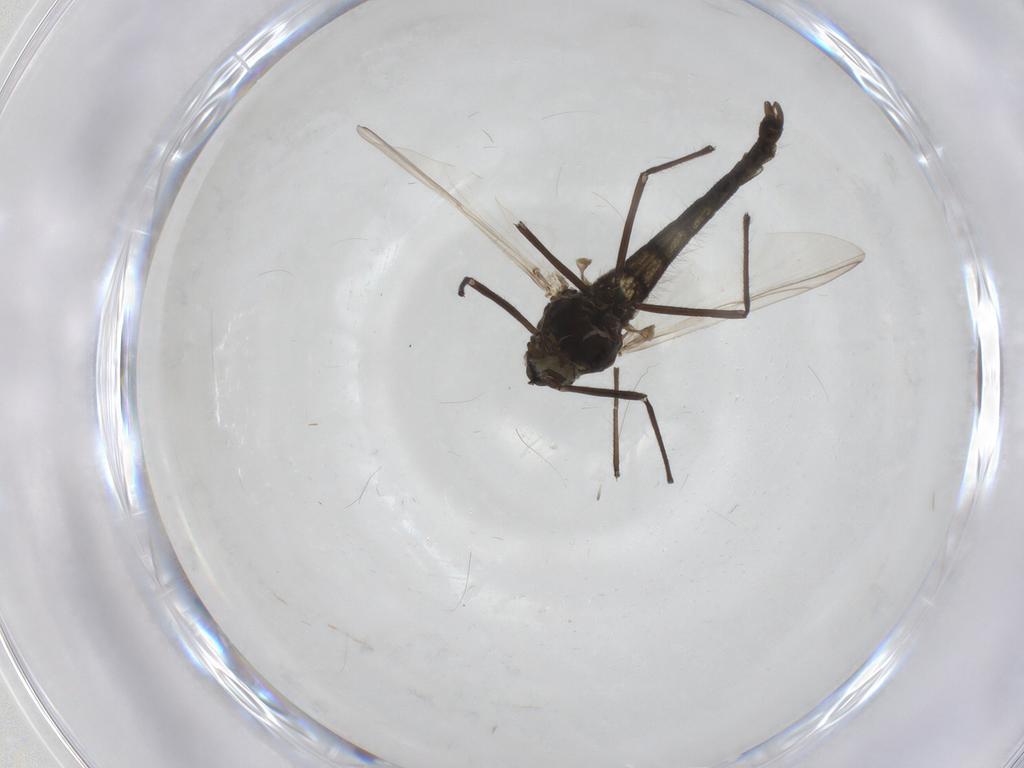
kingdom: Animalia
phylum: Arthropoda
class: Insecta
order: Diptera
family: Chironomidae
